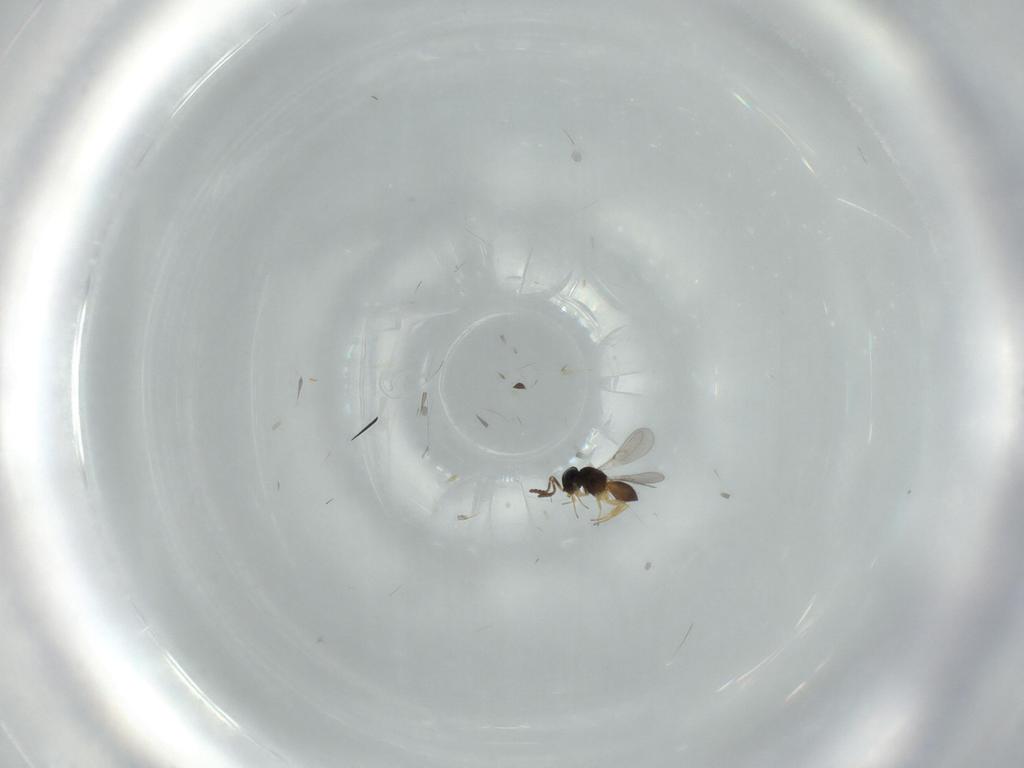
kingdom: Animalia
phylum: Arthropoda
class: Insecta
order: Hymenoptera
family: Scelionidae
